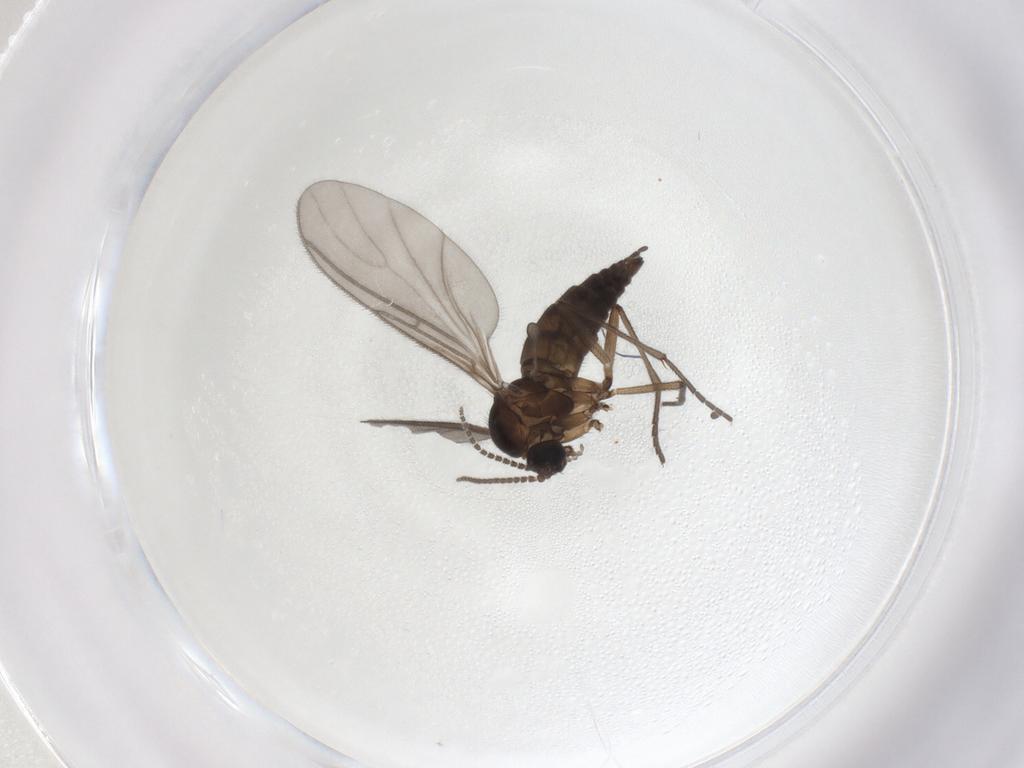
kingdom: Animalia
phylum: Arthropoda
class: Insecta
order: Diptera
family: Sciaridae
